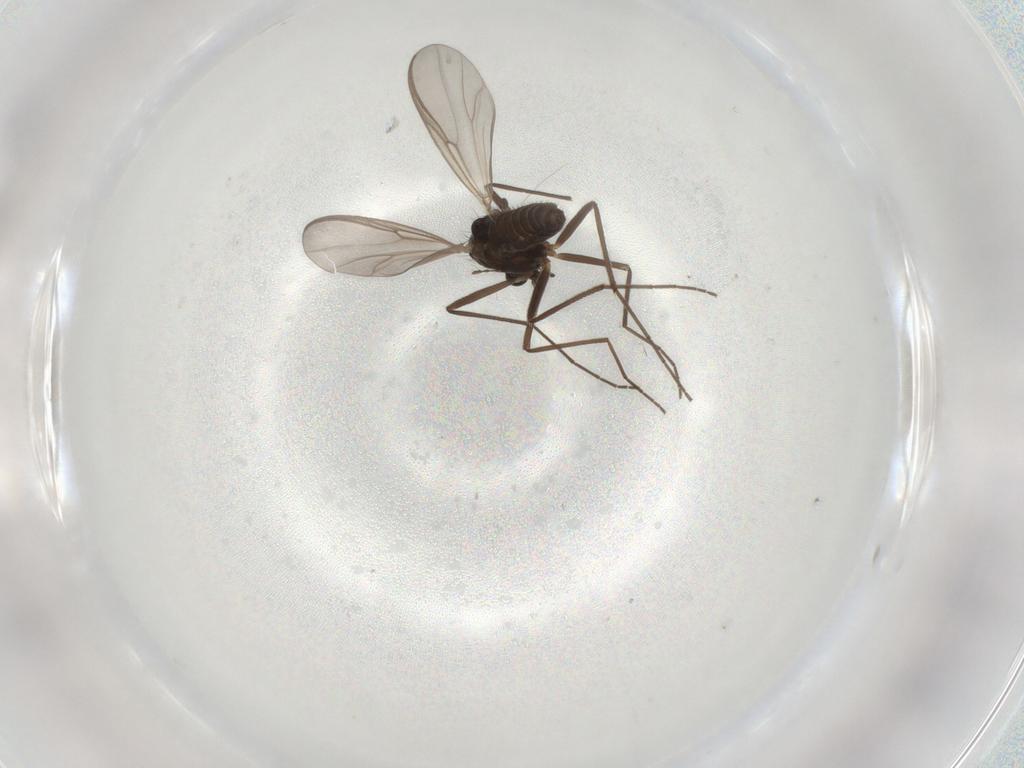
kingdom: Animalia
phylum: Arthropoda
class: Insecta
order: Diptera
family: Chironomidae
